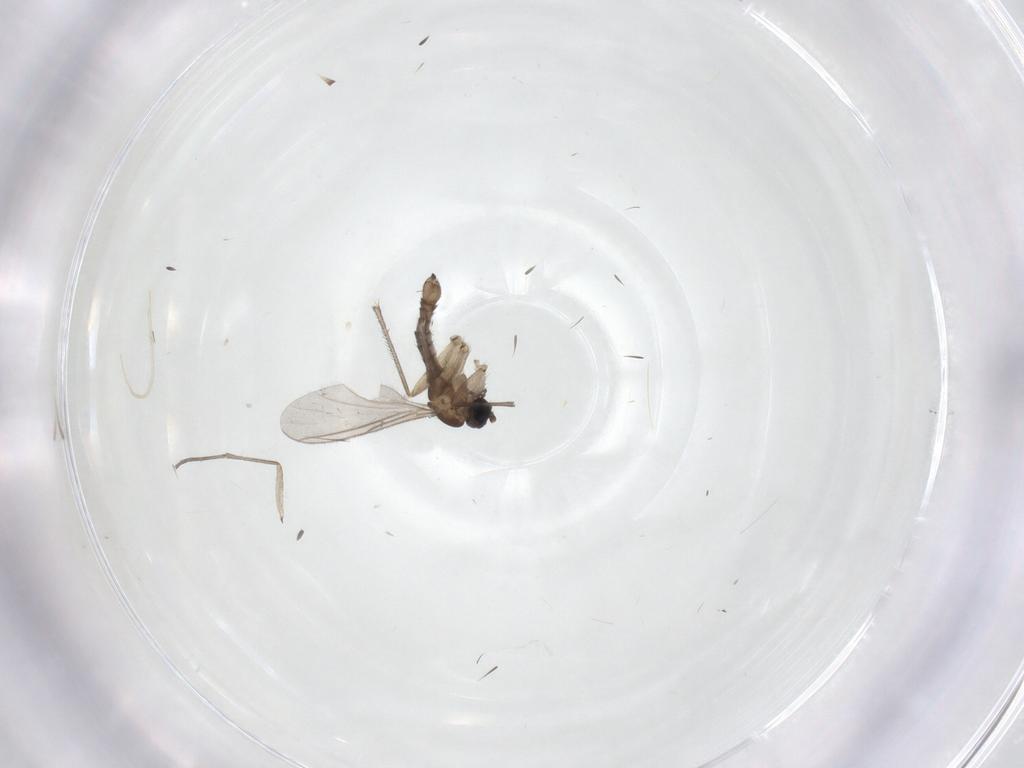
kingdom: Animalia
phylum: Arthropoda
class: Insecta
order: Diptera
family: Sciaridae
